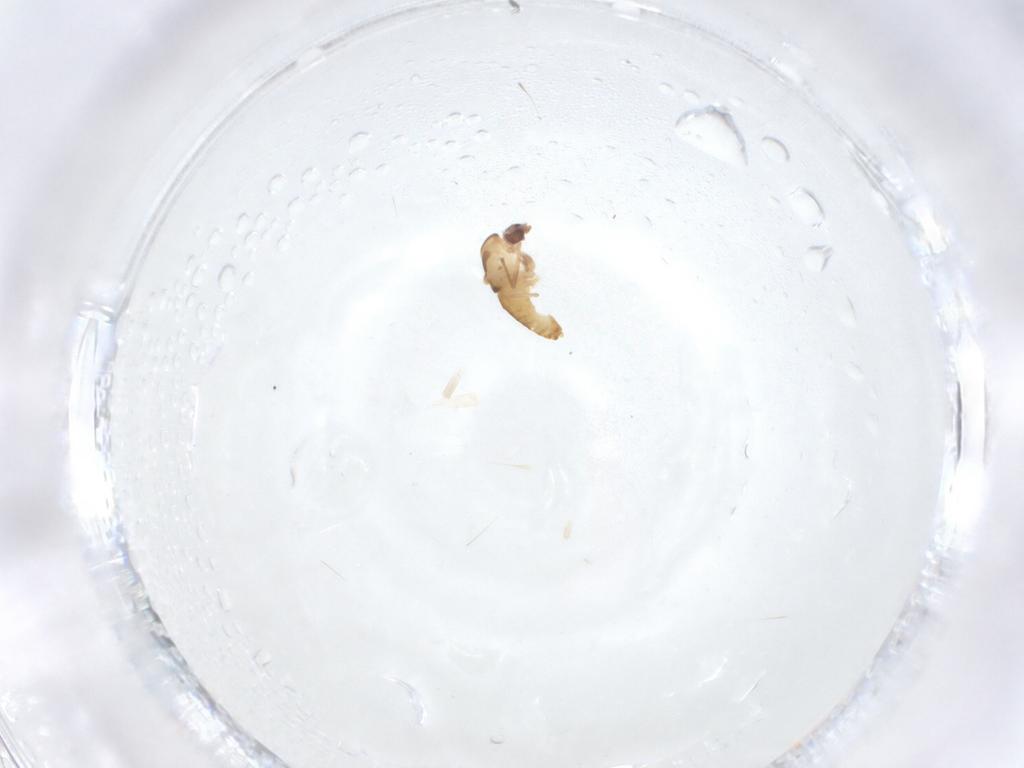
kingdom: Animalia
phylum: Arthropoda
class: Insecta
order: Diptera
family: Chironomidae
